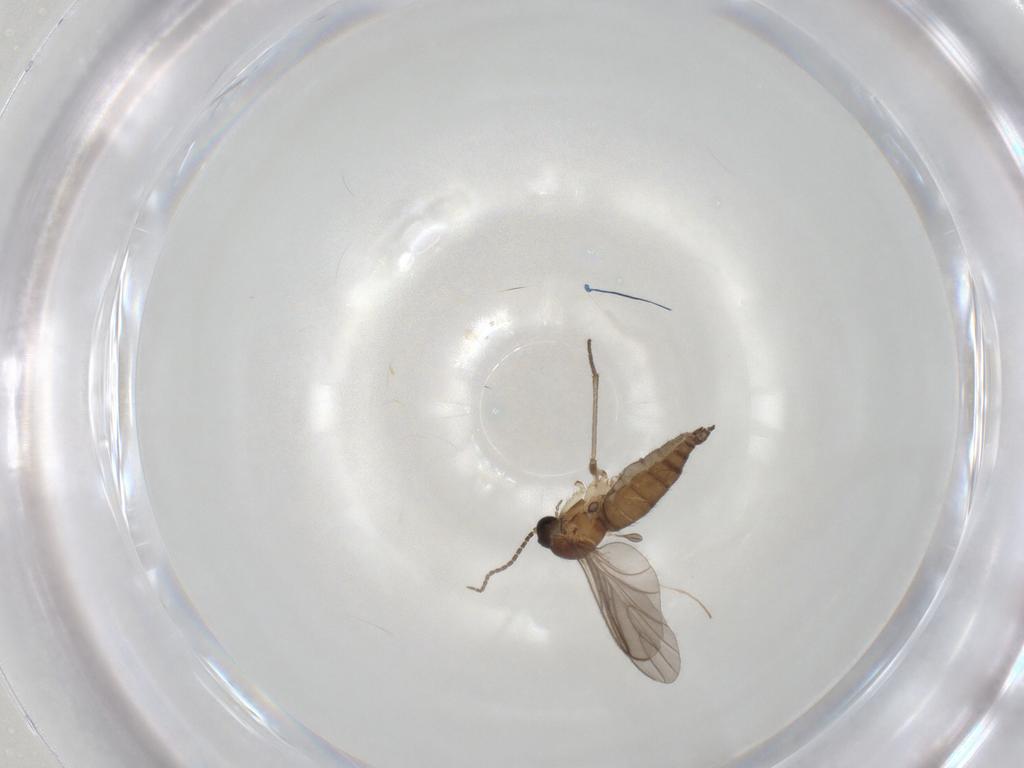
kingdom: Animalia
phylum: Arthropoda
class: Insecta
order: Diptera
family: Sciaridae
